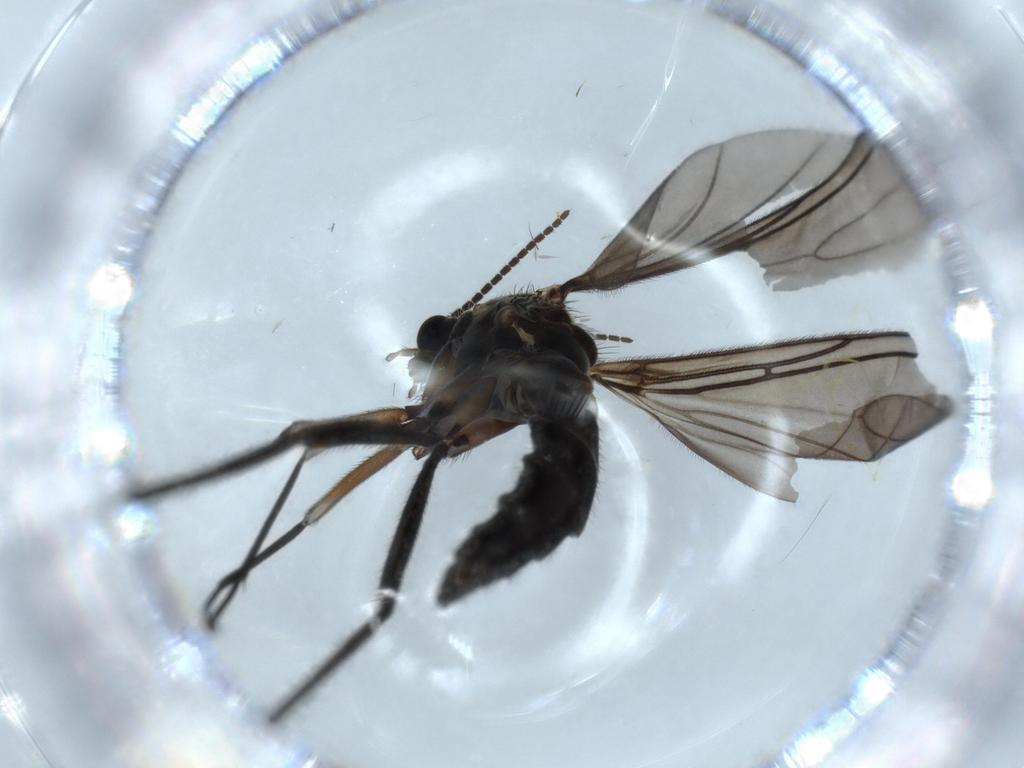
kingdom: Animalia
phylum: Arthropoda
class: Insecta
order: Diptera
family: Sciaridae
